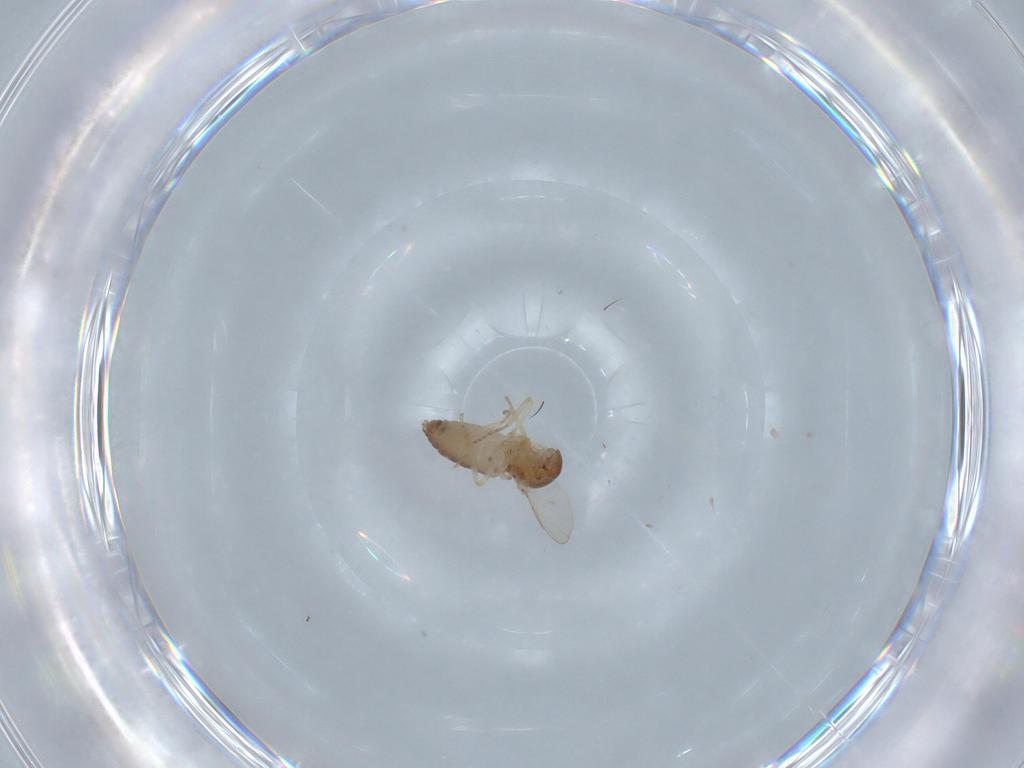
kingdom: Animalia
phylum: Arthropoda
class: Insecta
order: Diptera
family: Ceratopogonidae
